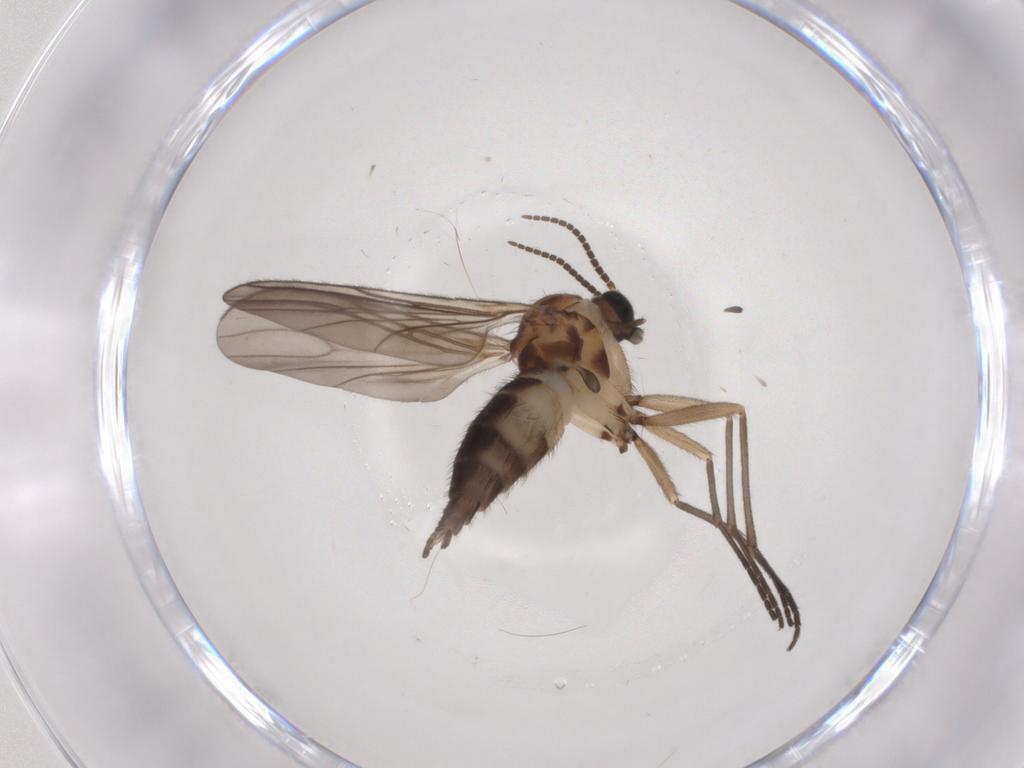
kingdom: Animalia
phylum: Arthropoda
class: Insecta
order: Diptera
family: Sciaridae
